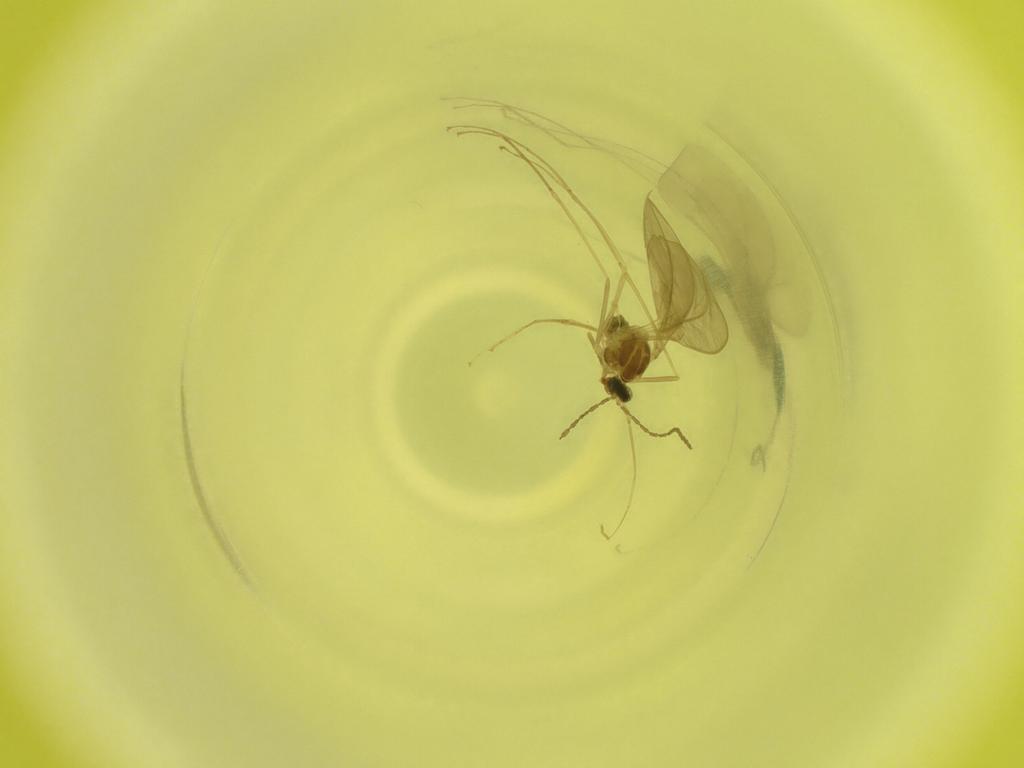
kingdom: Animalia
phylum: Arthropoda
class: Insecta
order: Diptera
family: Cecidomyiidae
